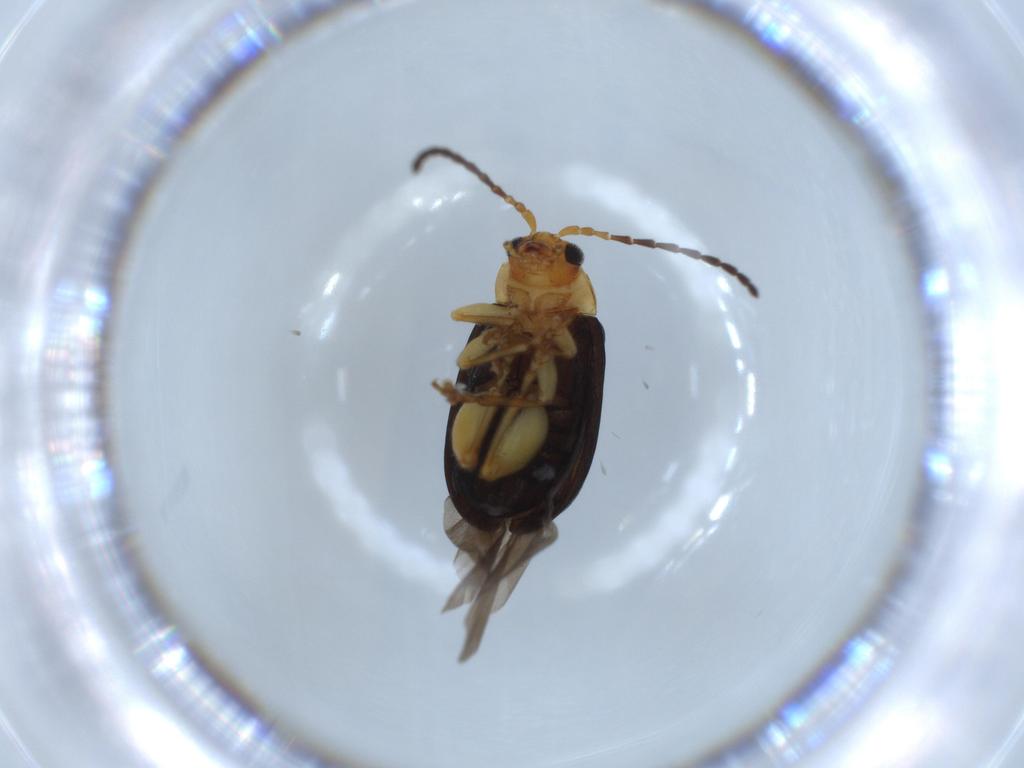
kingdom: Animalia
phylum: Arthropoda
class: Insecta
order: Coleoptera
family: Chrysomelidae
